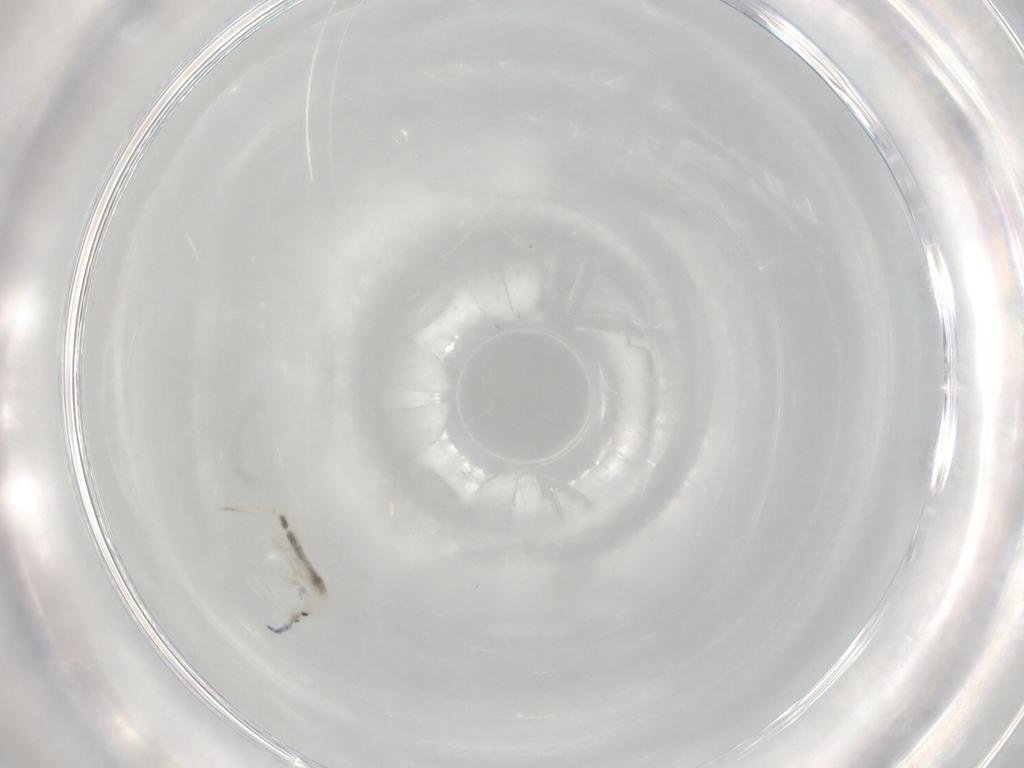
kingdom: Animalia
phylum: Arthropoda
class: Collembola
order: Entomobryomorpha
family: Entomobryidae
